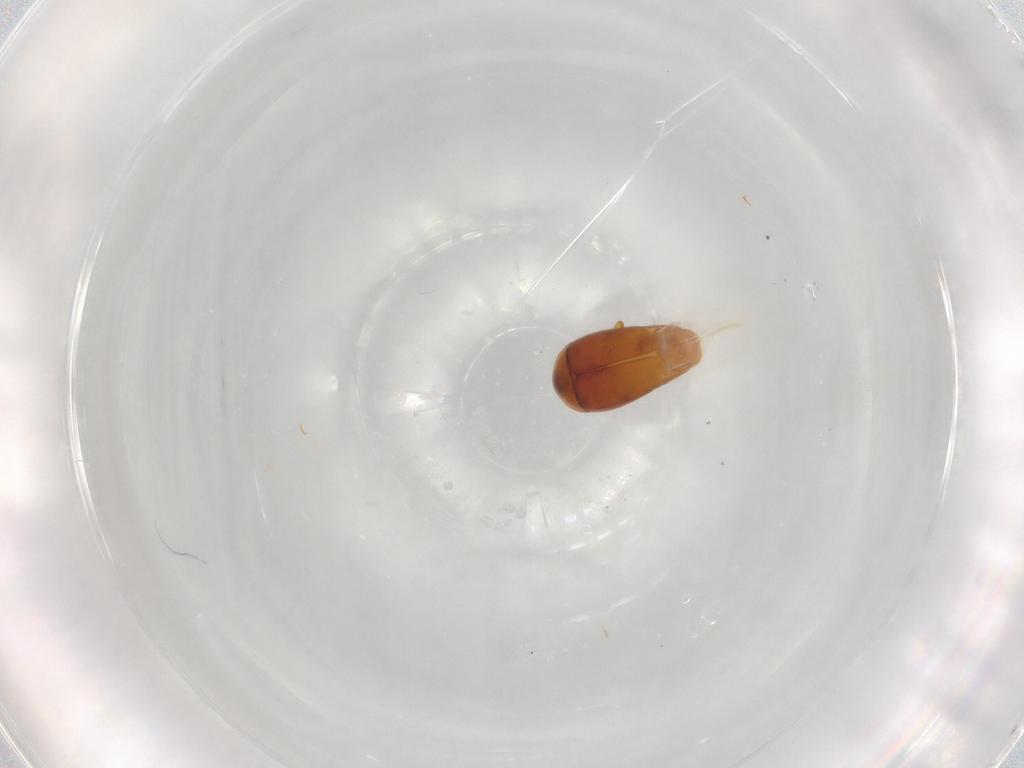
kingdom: Animalia
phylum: Arthropoda
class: Insecta
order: Coleoptera
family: Corylophidae
